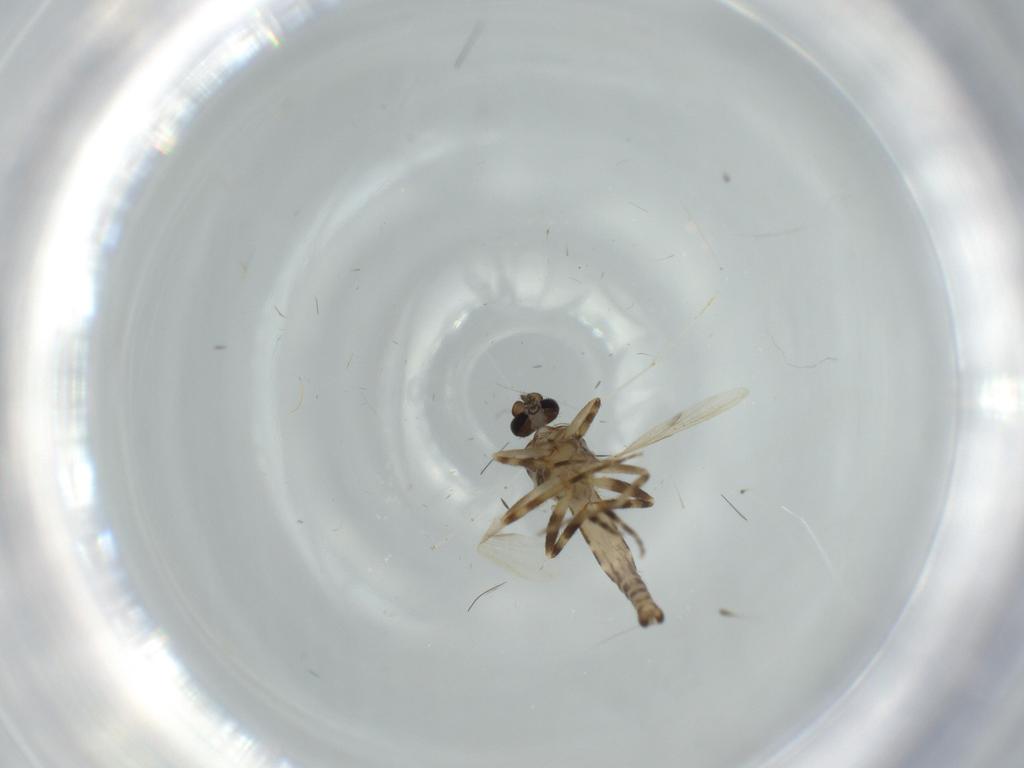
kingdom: Animalia
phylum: Arthropoda
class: Insecta
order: Diptera
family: Ceratopogonidae
